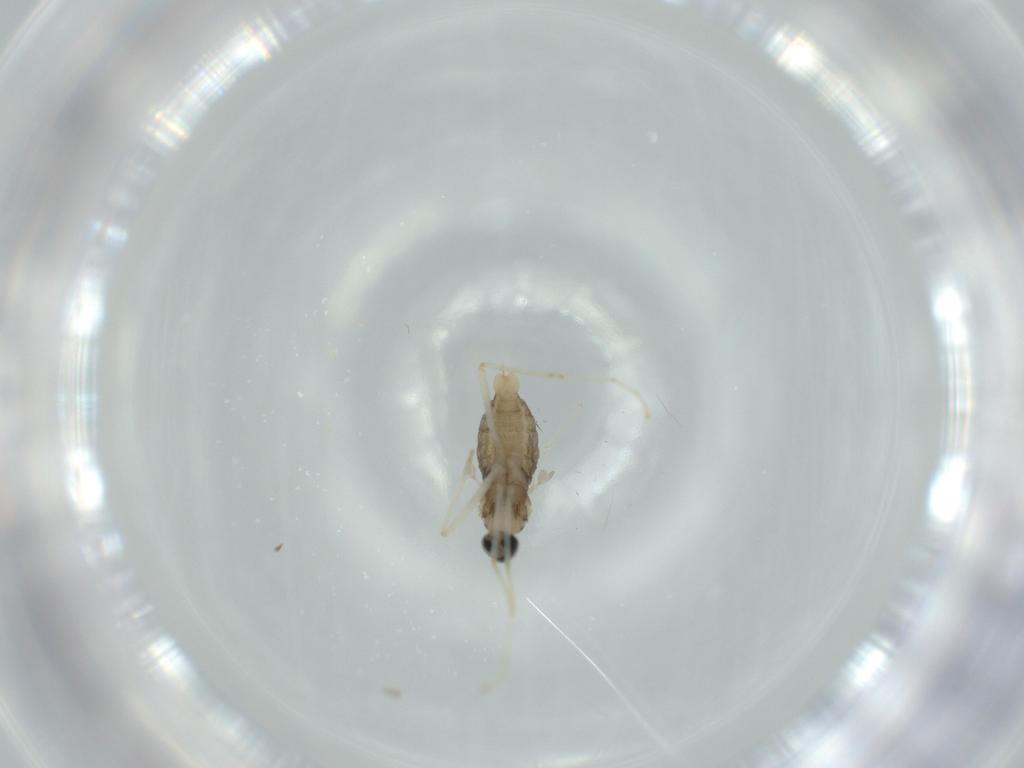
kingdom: Animalia
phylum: Arthropoda
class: Insecta
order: Diptera
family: Cecidomyiidae
